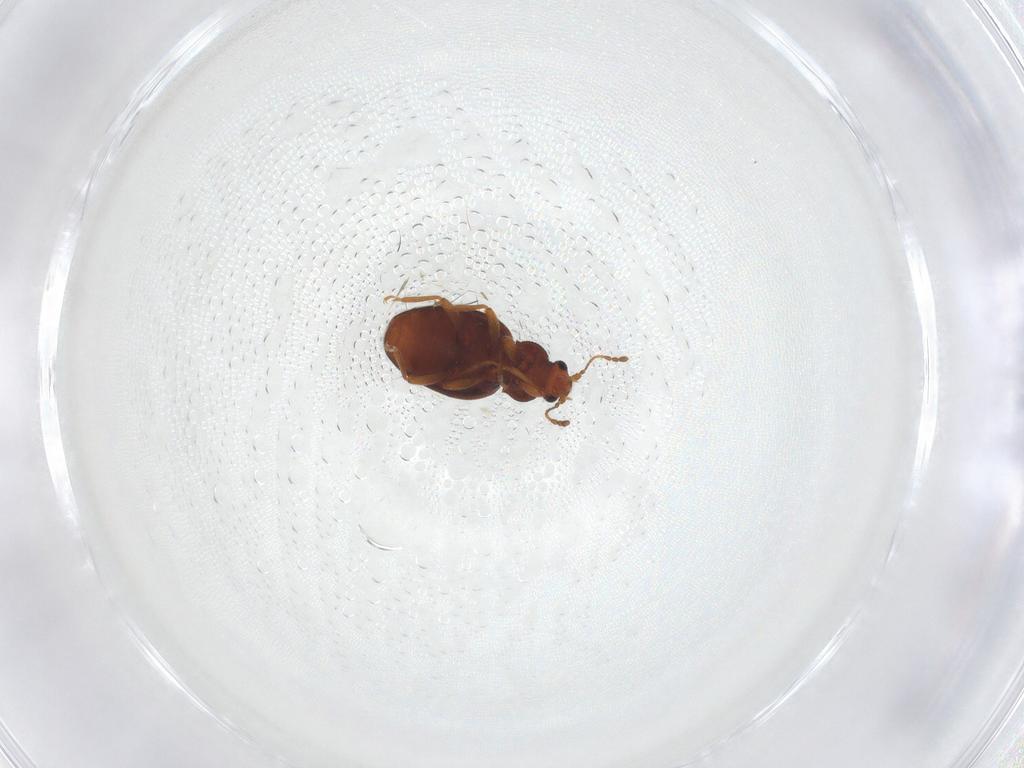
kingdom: Animalia
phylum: Arthropoda
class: Insecta
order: Coleoptera
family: Latridiidae
